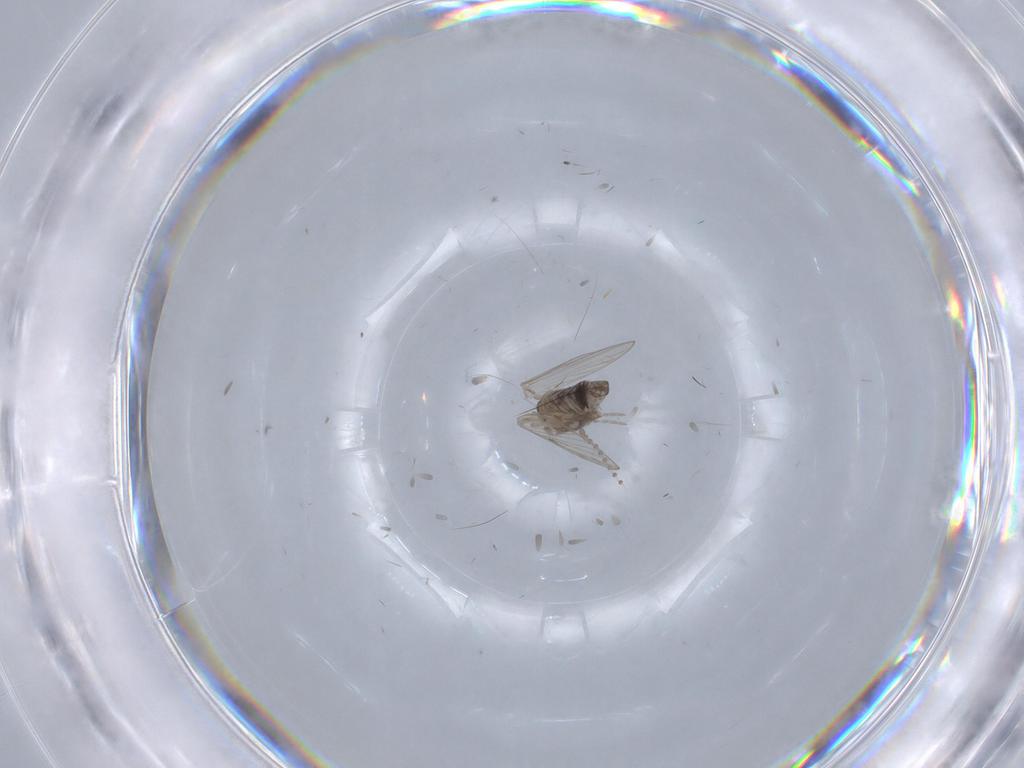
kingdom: Animalia
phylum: Arthropoda
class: Insecta
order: Diptera
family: Psychodidae
